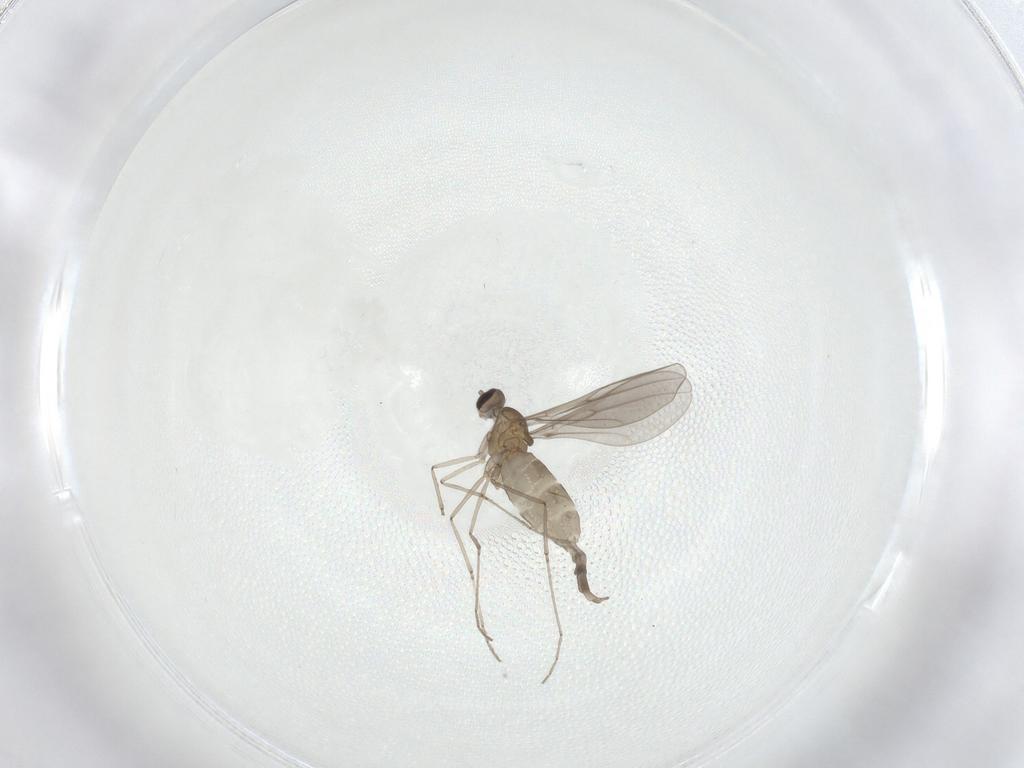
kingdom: Animalia
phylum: Arthropoda
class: Insecta
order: Diptera
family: Cecidomyiidae
